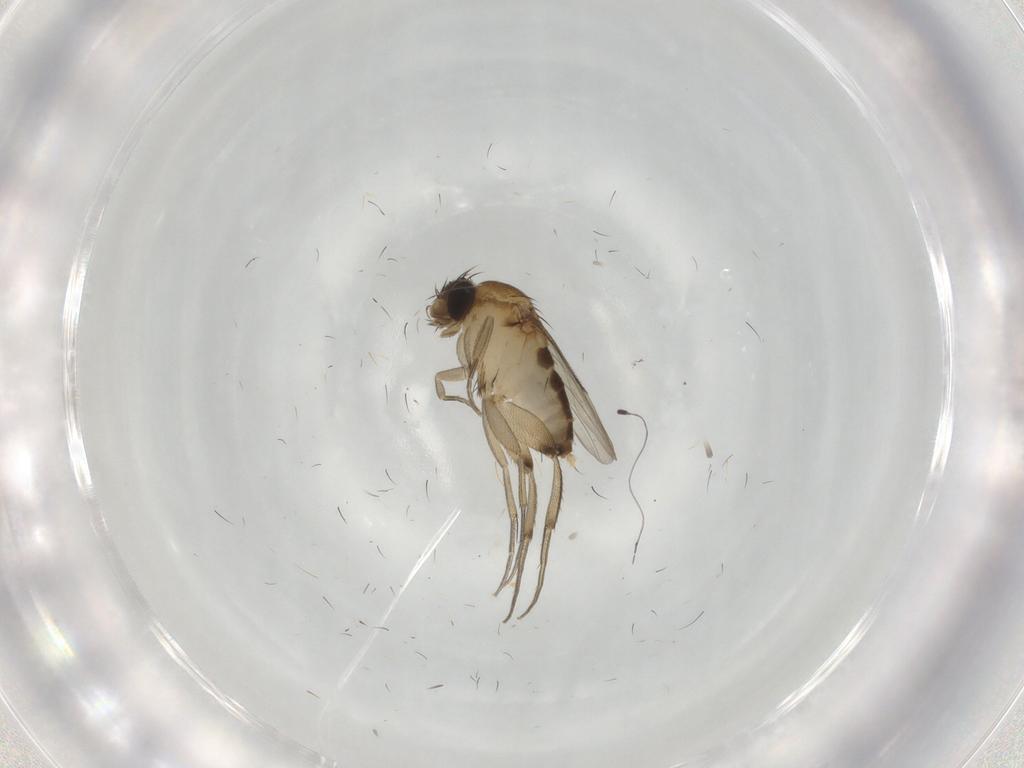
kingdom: Animalia
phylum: Arthropoda
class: Insecta
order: Diptera
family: Phoridae
